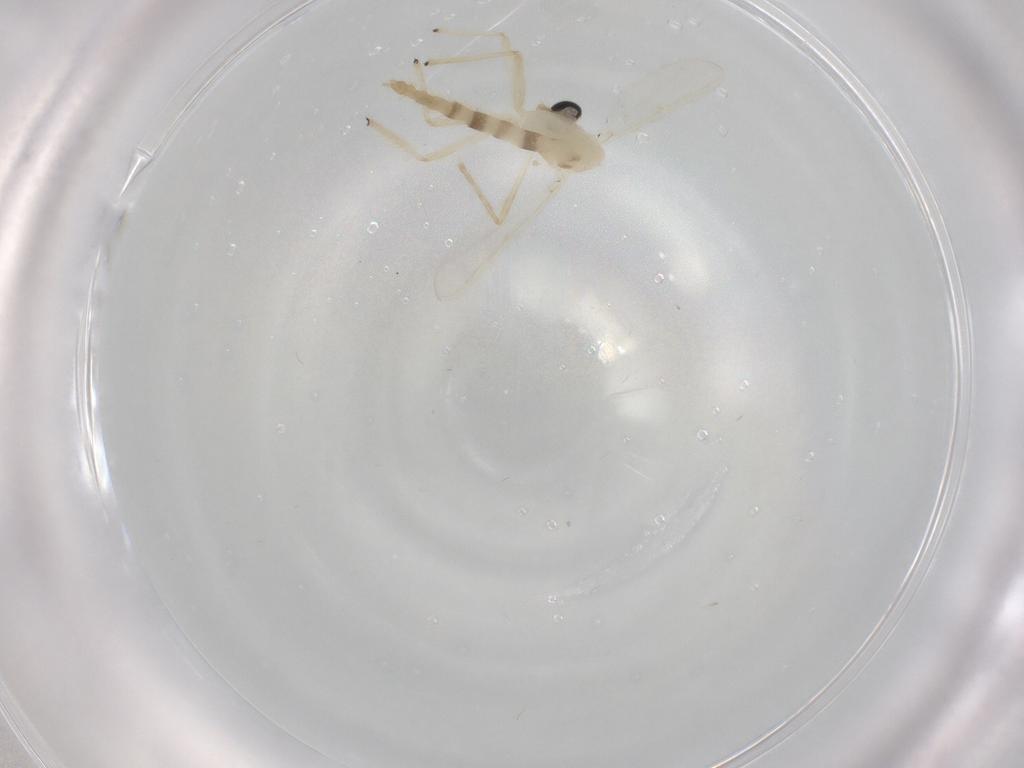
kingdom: Animalia
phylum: Arthropoda
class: Insecta
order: Diptera
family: Chironomidae
